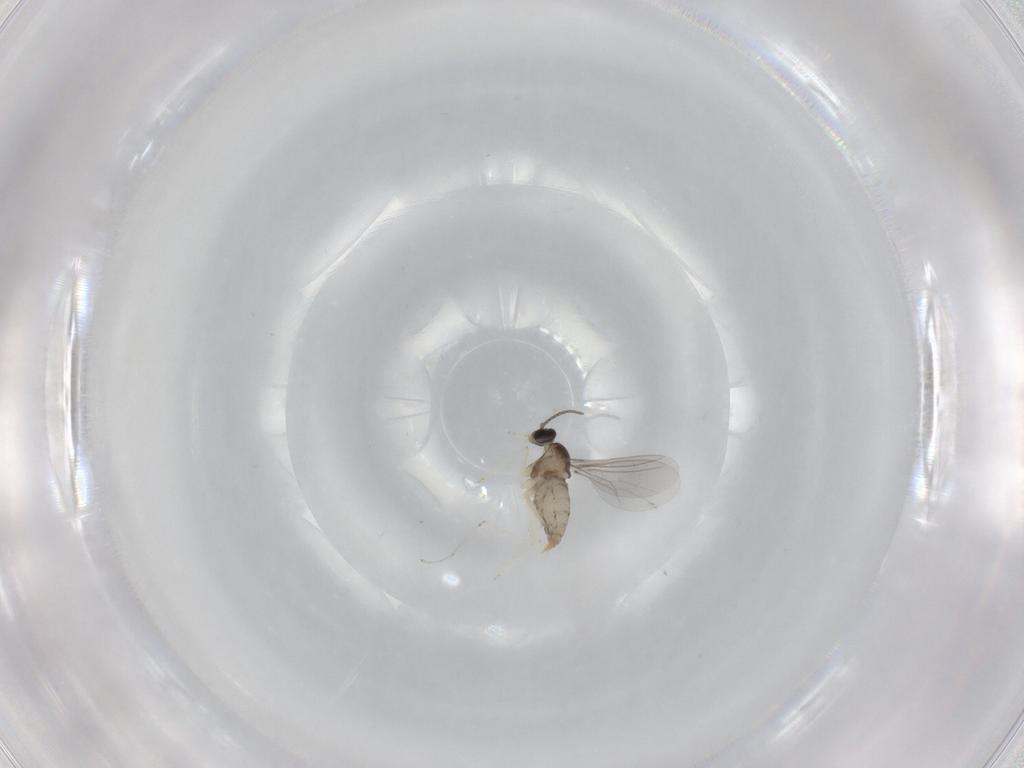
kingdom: Animalia
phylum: Arthropoda
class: Insecta
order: Diptera
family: Cecidomyiidae
